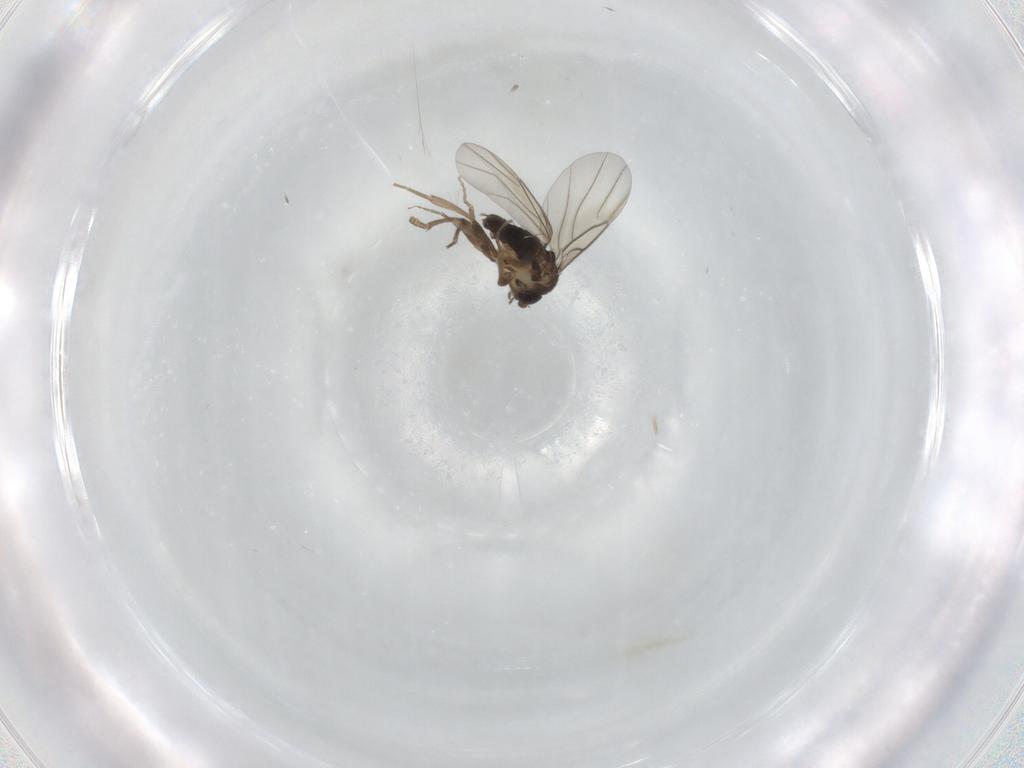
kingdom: Animalia
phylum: Arthropoda
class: Insecta
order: Diptera
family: Phoridae
